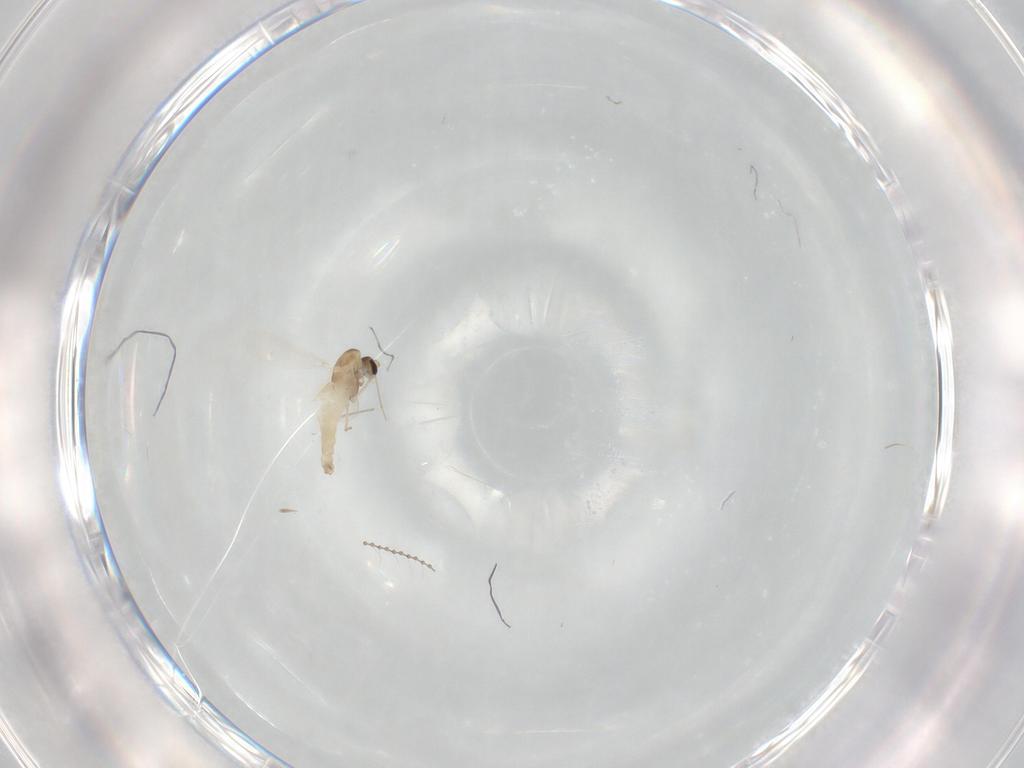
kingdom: Animalia
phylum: Arthropoda
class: Insecta
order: Diptera
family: Chironomidae
